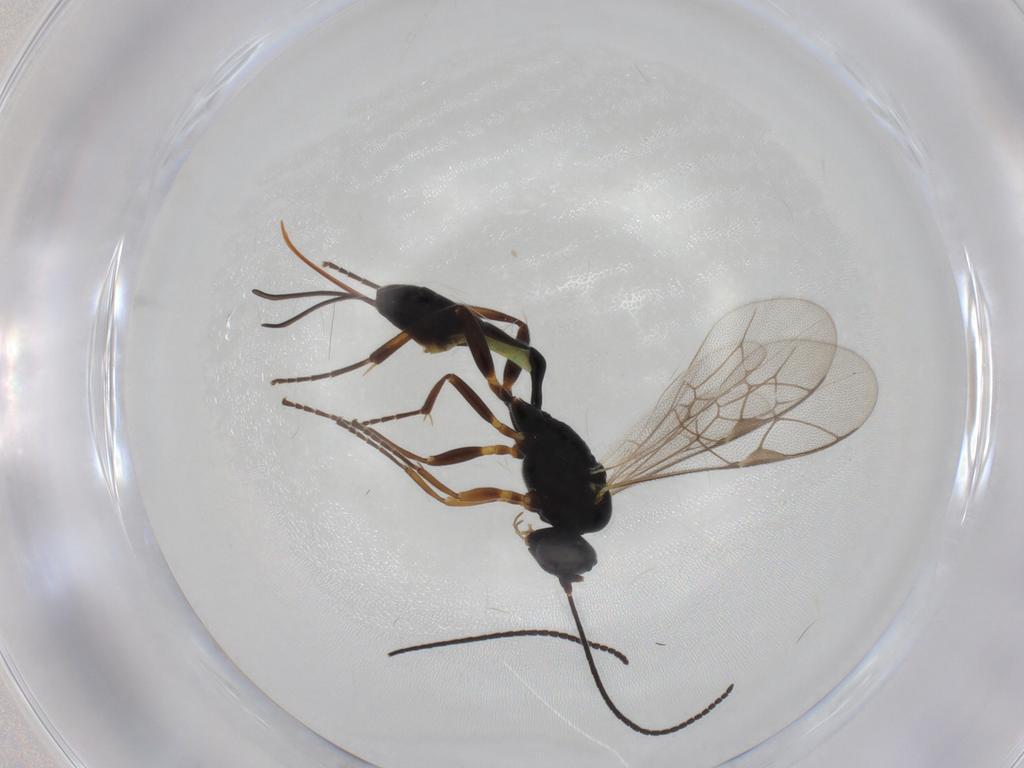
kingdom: Animalia
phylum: Arthropoda
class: Insecta
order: Hymenoptera
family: Ichneumonidae
